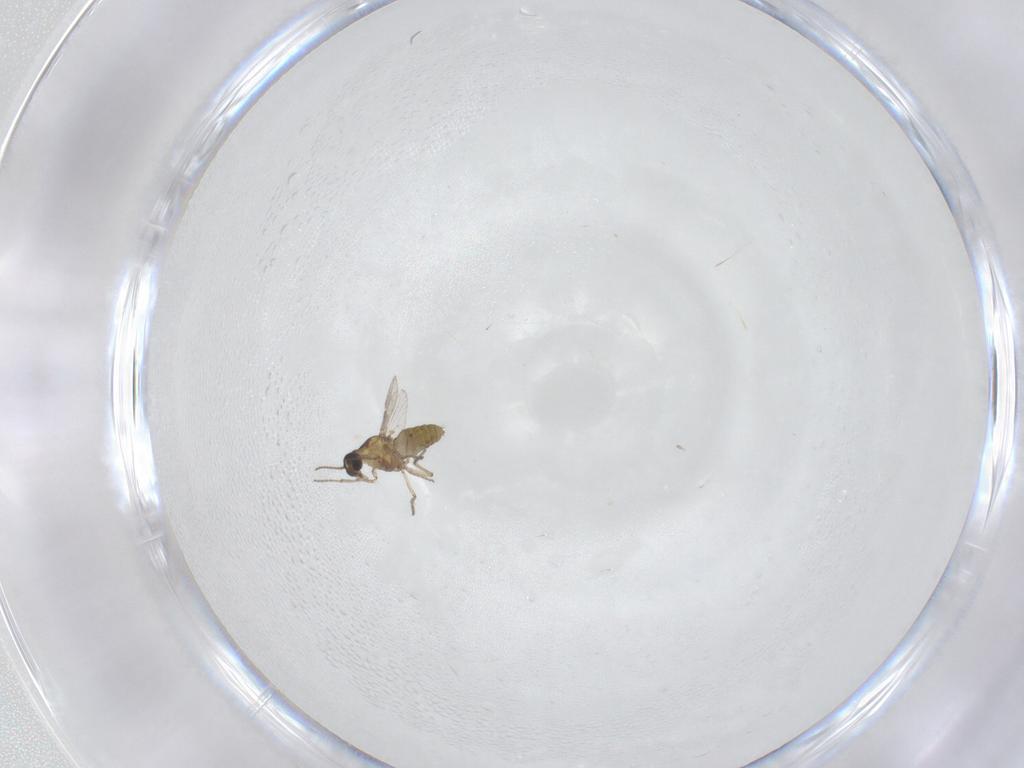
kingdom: Animalia
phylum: Arthropoda
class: Insecta
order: Diptera
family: Ceratopogonidae
